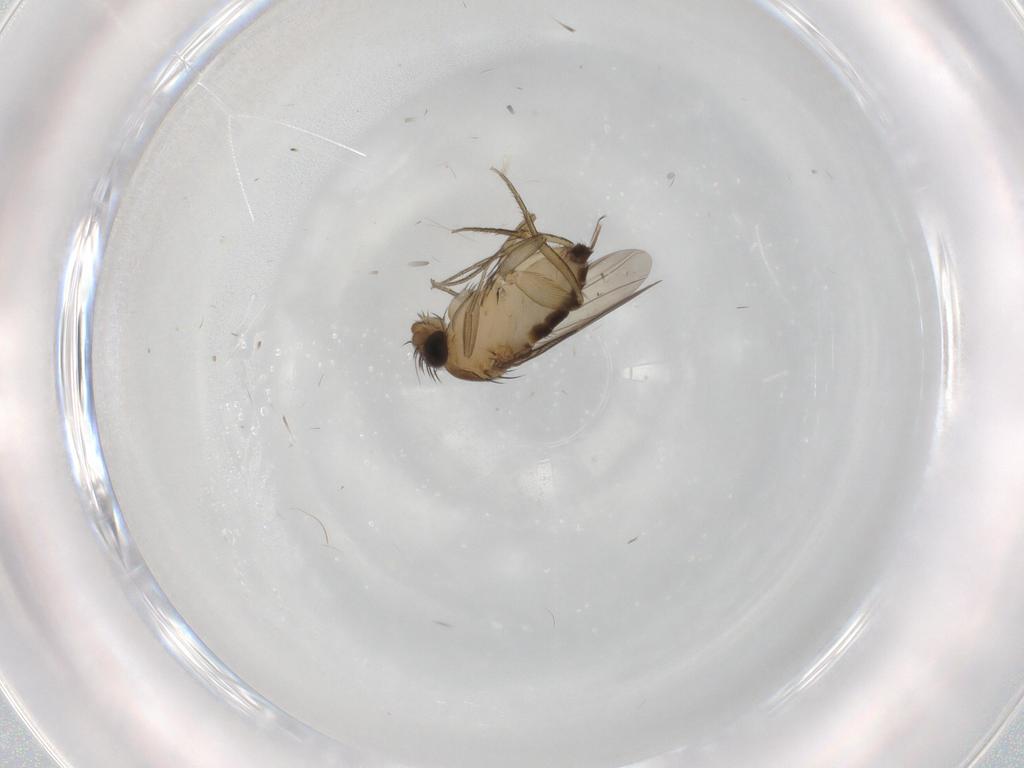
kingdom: Animalia
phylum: Arthropoda
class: Insecta
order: Diptera
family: Phoridae
